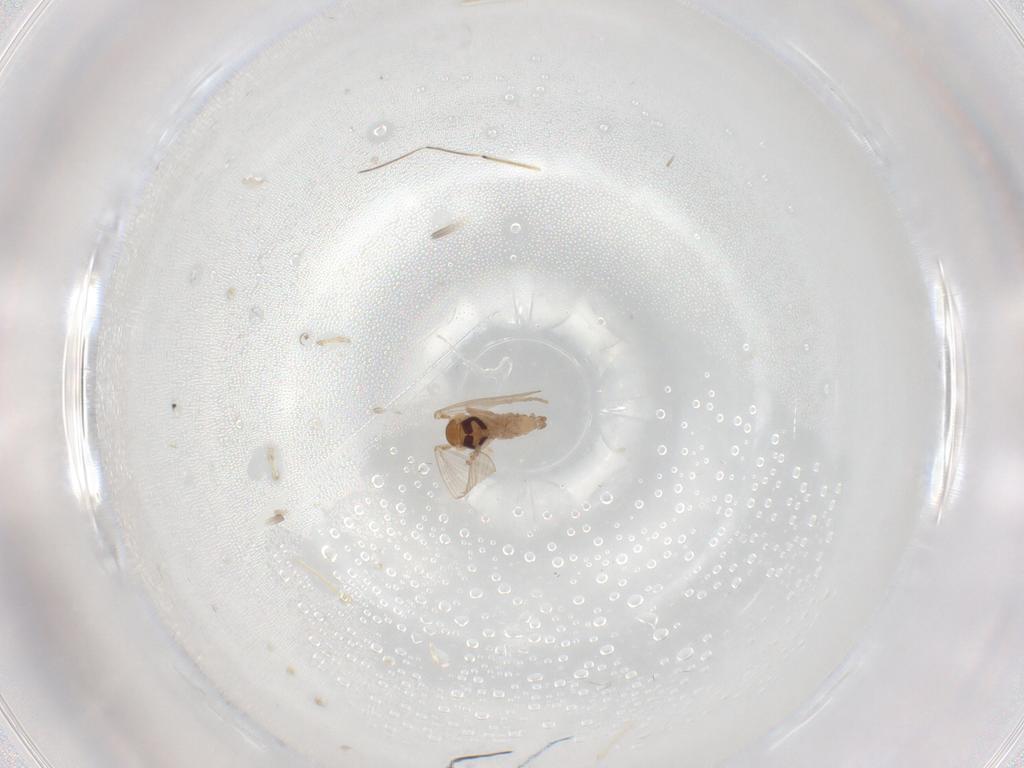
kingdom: Animalia
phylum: Arthropoda
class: Insecta
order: Diptera
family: Psychodidae
